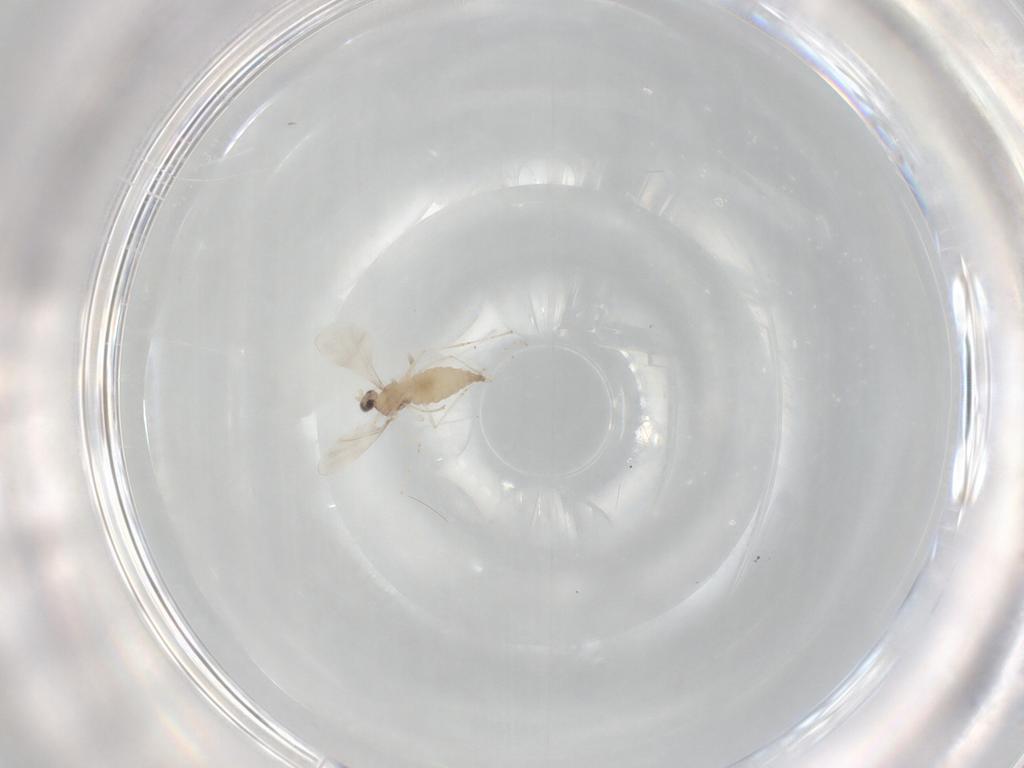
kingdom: Animalia
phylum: Arthropoda
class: Insecta
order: Diptera
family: Cecidomyiidae
